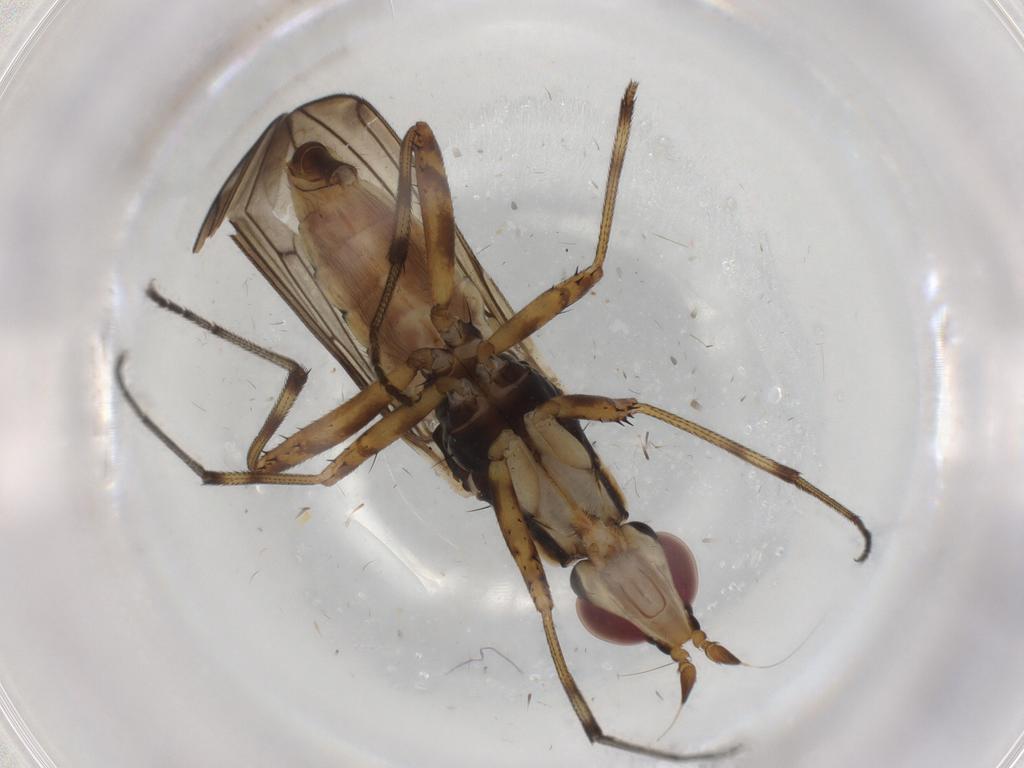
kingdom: Animalia
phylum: Arthropoda
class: Insecta
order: Diptera
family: Neriidae
